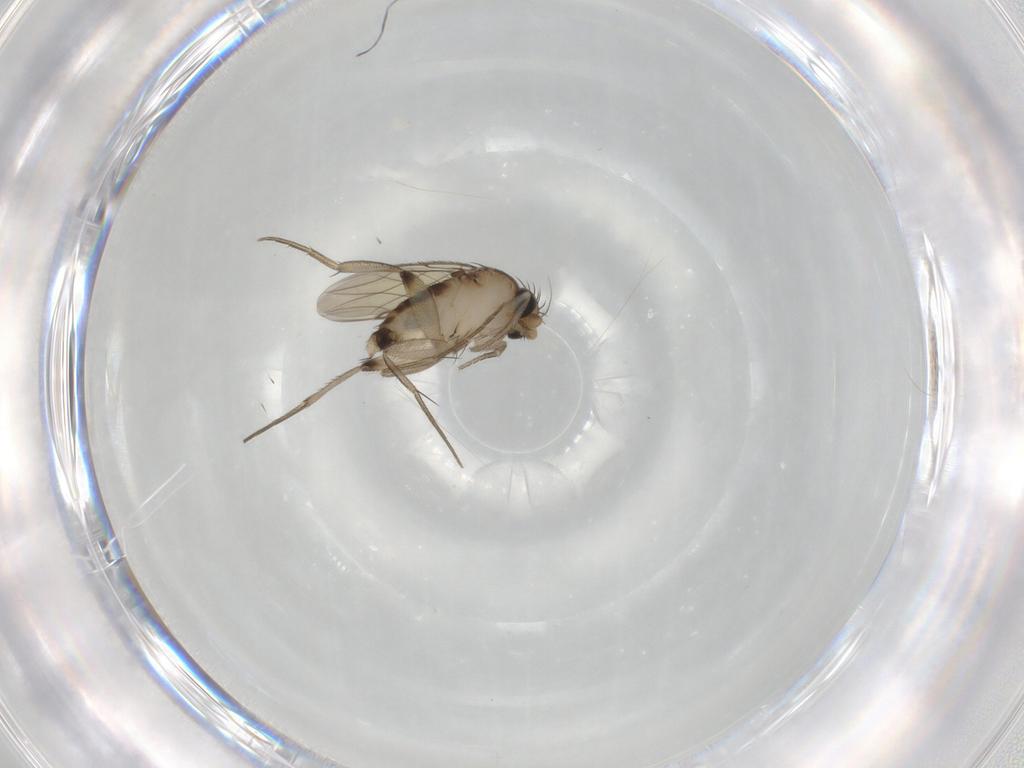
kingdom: Animalia
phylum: Arthropoda
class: Insecta
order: Diptera
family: Phoridae
